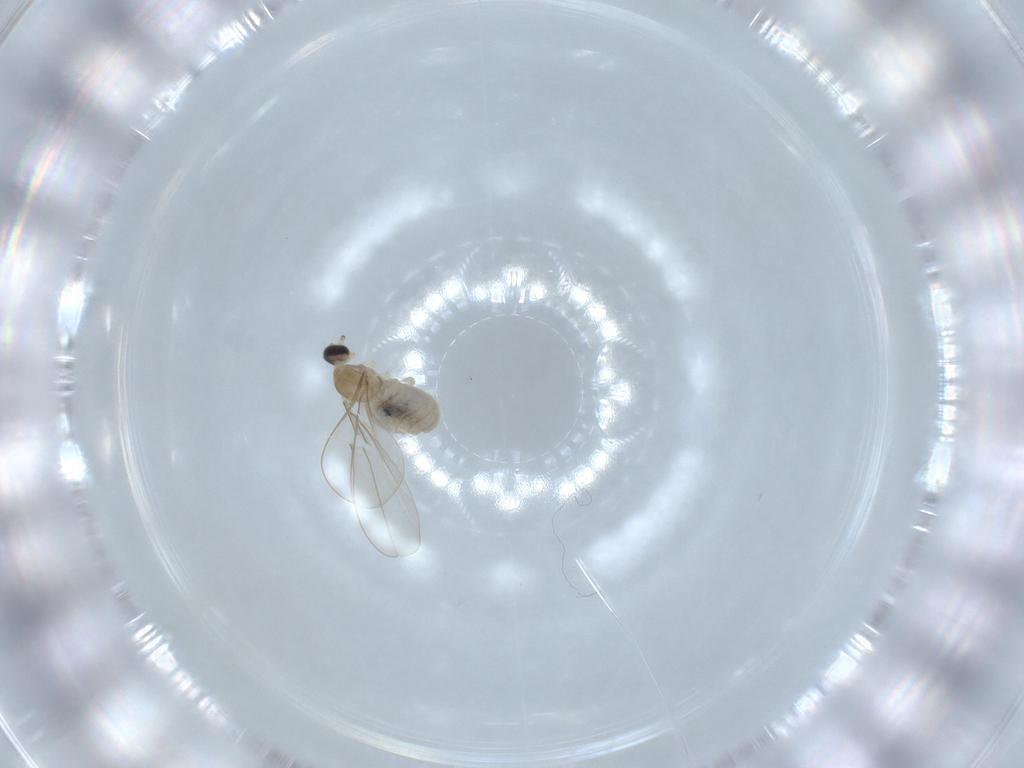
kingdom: Animalia
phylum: Arthropoda
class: Insecta
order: Diptera
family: Cecidomyiidae
